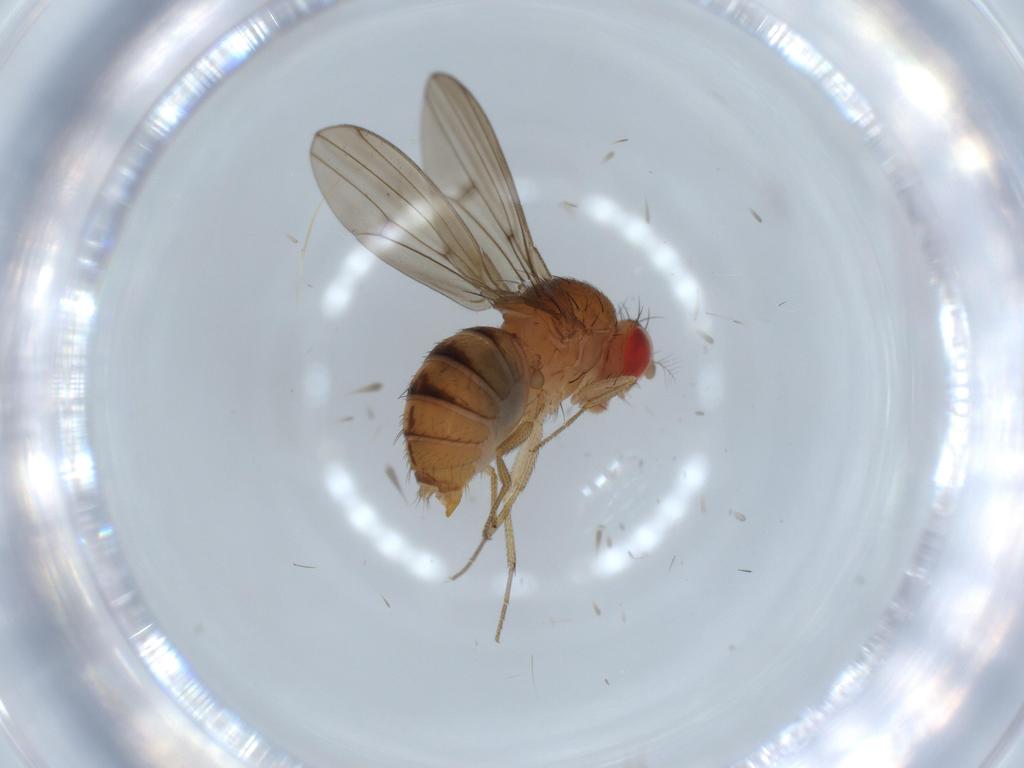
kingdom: Animalia
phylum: Arthropoda
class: Insecta
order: Diptera
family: Drosophilidae
